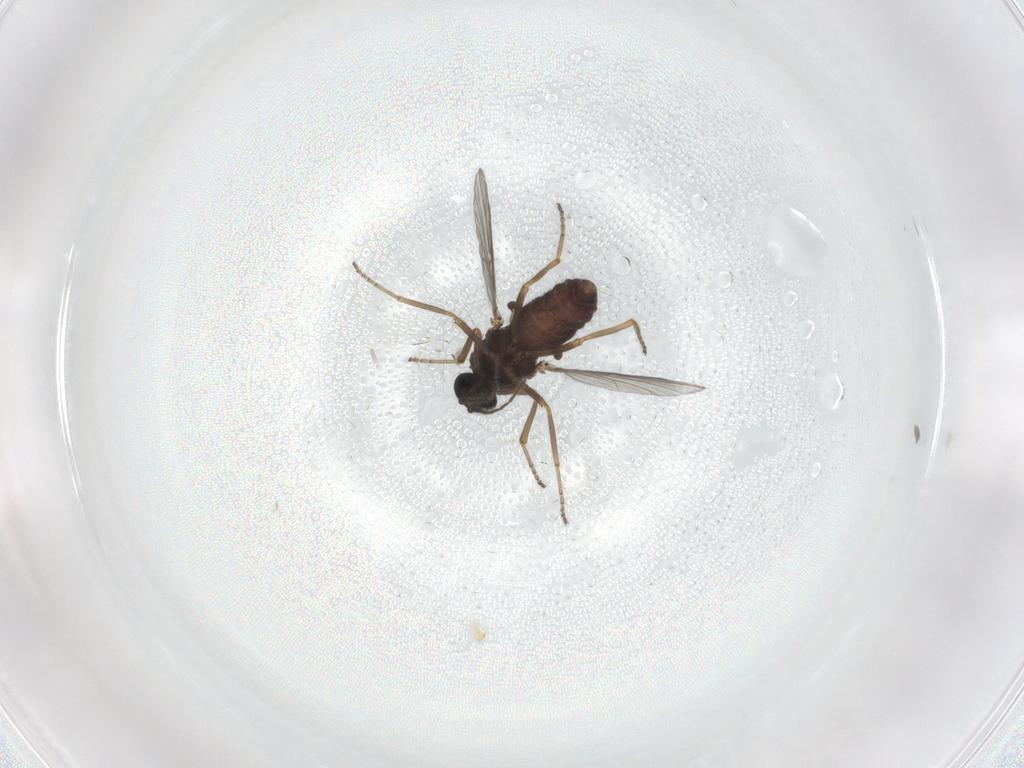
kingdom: Animalia
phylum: Arthropoda
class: Insecta
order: Diptera
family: Ceratopogonidae
